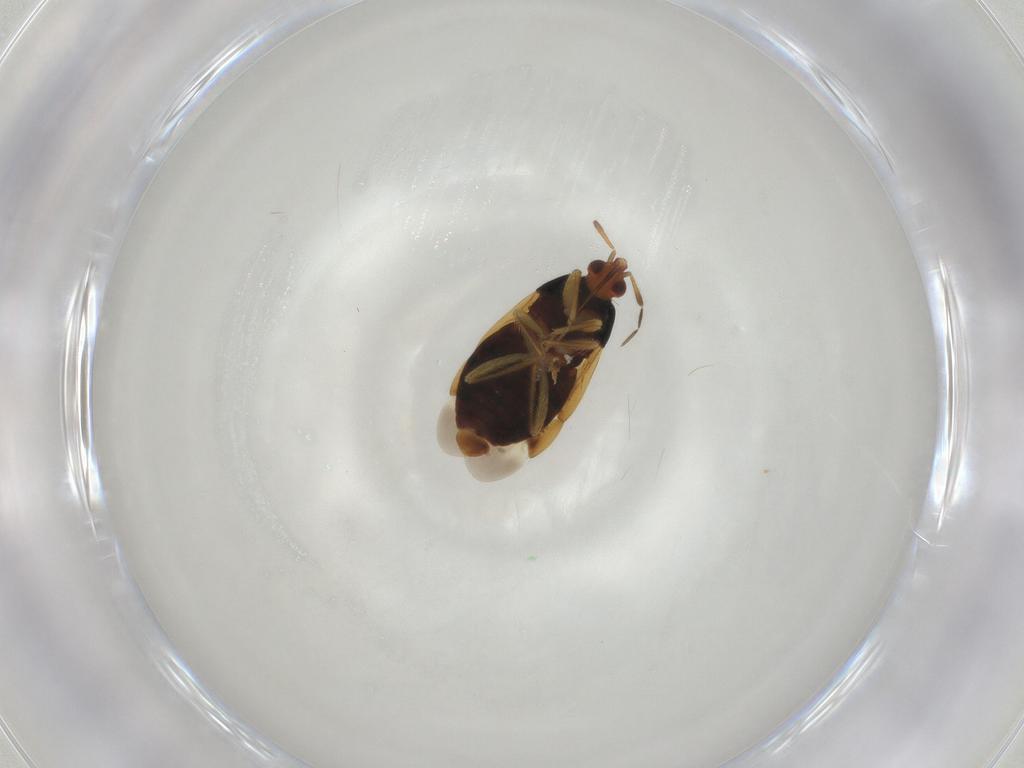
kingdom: Animalia
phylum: Arthropoda
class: Insecta
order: Hemiptera
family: Anthocoridae
